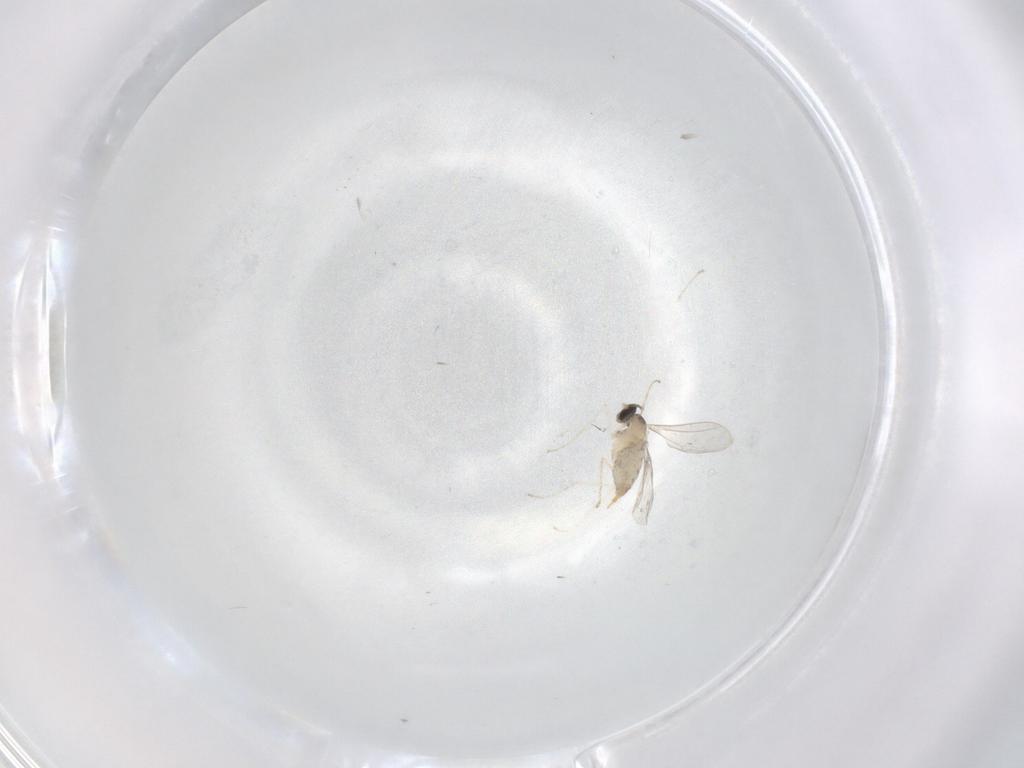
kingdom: Animalia
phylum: Arthropoda
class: Insecta
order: Diptera
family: Cecidomyiidae
